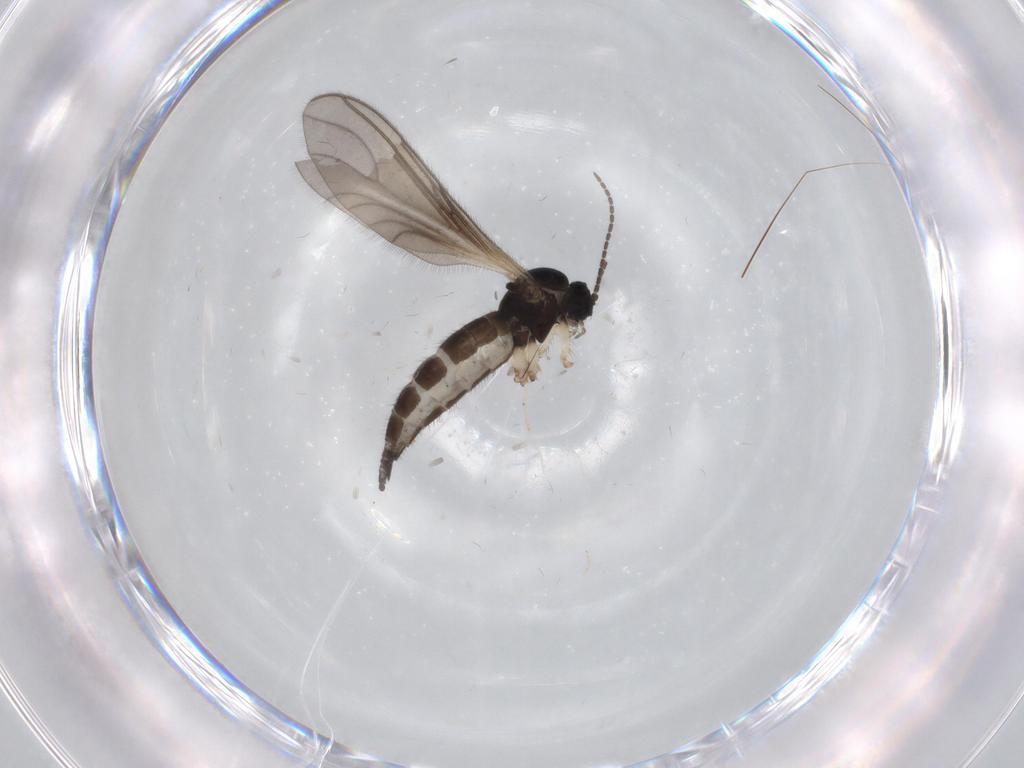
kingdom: Animalia
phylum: Arthropoda
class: Insecta
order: Diptera
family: Sciaridae
